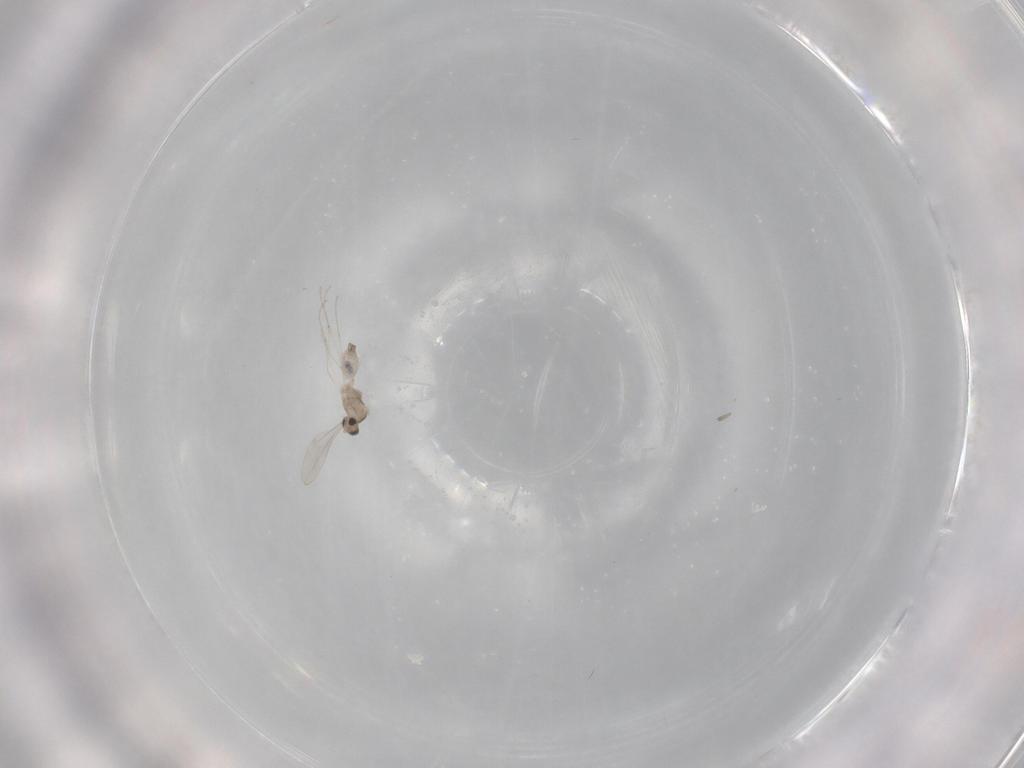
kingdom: Animalia
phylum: Arthropoda
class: Insecta
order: Diptera
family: Cecidomyiidae
